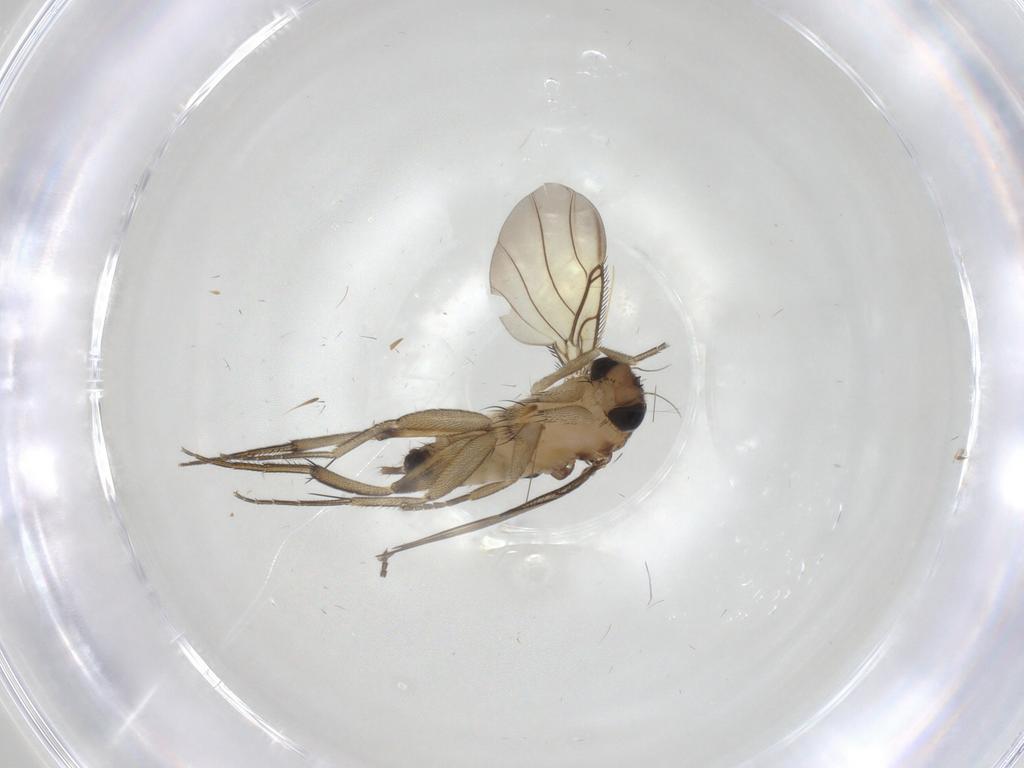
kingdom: Animalia
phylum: Arthropoda
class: Insecta
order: Diptera
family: Phoridae
